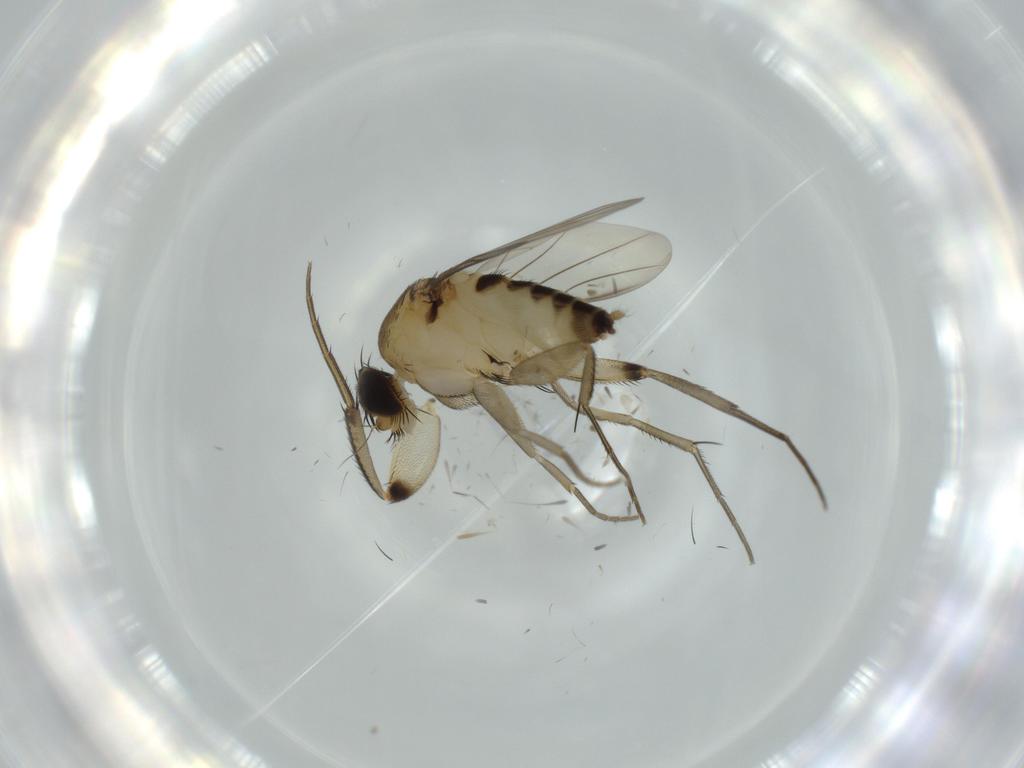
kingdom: Animalia
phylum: Arthropoda
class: Insecta
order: Diptera
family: Phoridae
